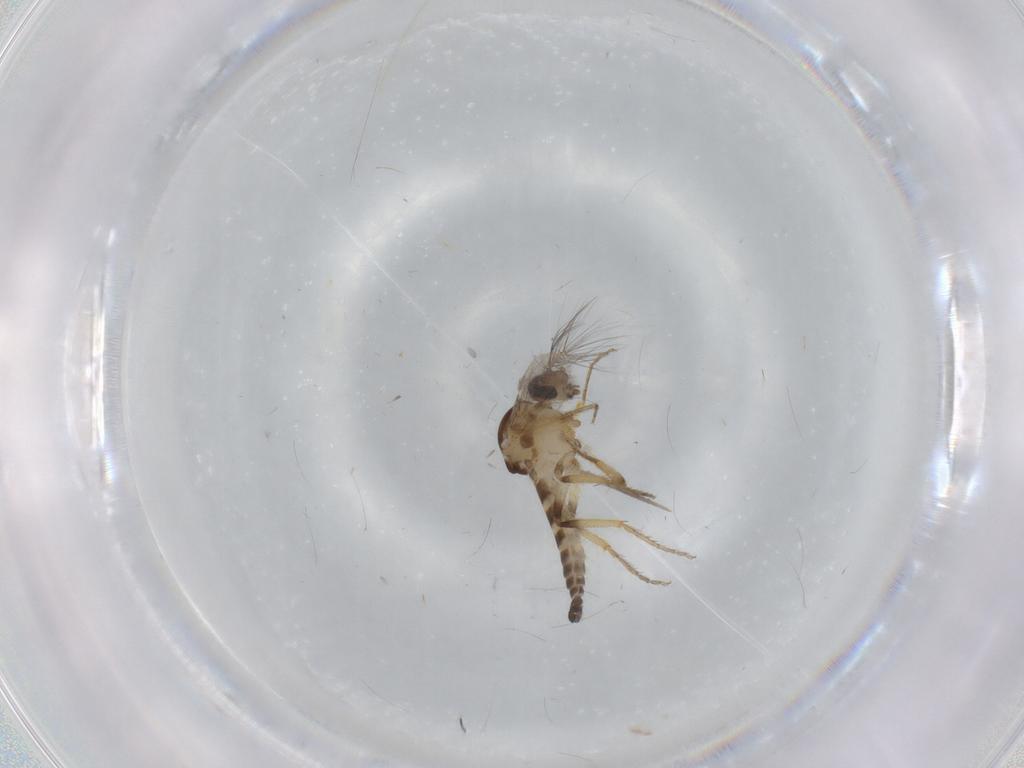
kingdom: Animalia
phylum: Arthropoda
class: Insecta
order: Diptera
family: Ceratopogonidae
